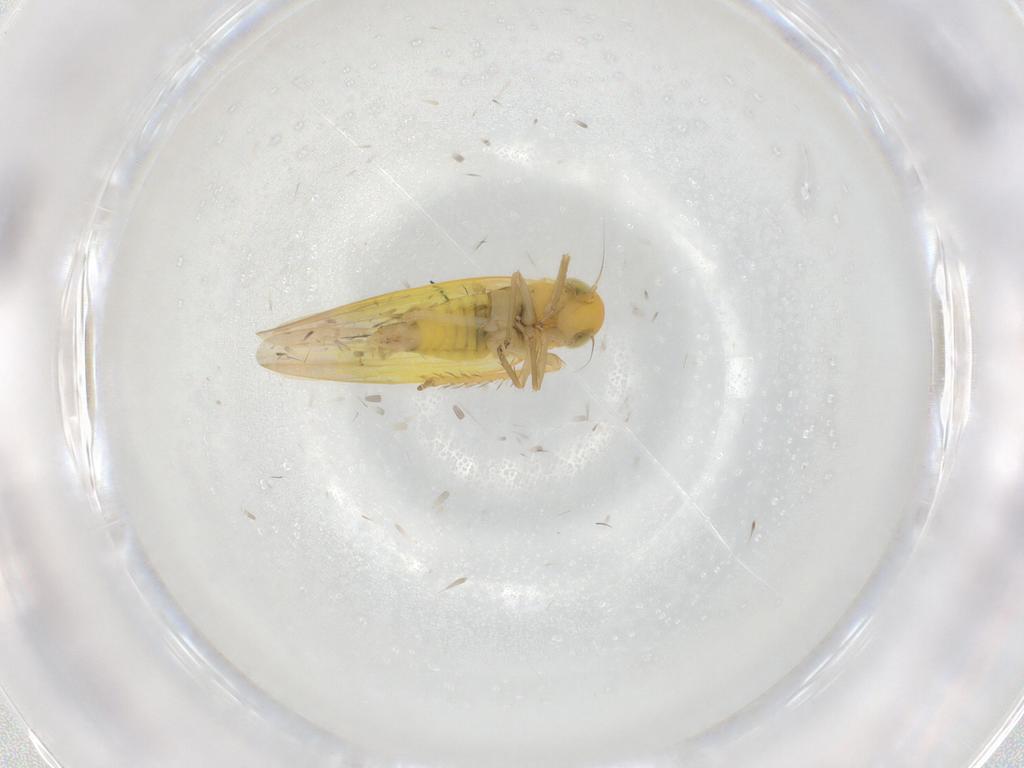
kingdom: Animalia
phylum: Arthropoda
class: Insecta
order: Hemiptera
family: Cicadellidae
